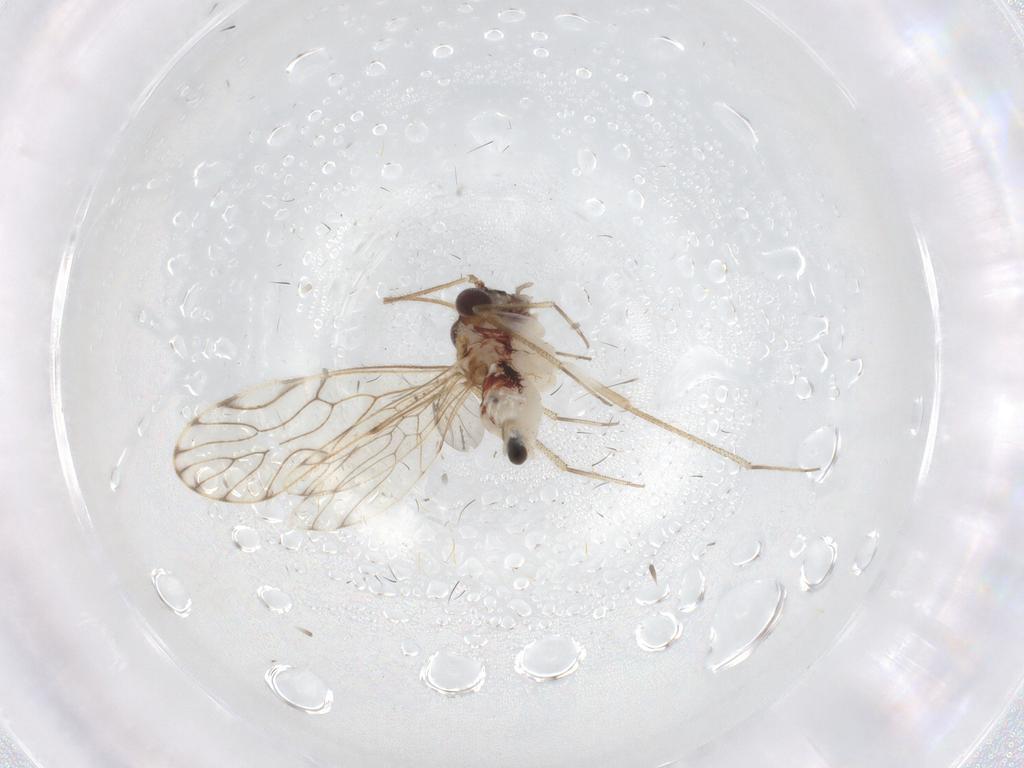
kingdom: Animalia
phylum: Arthropoda
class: Insecta
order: Psocodea
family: Epipsocidae
